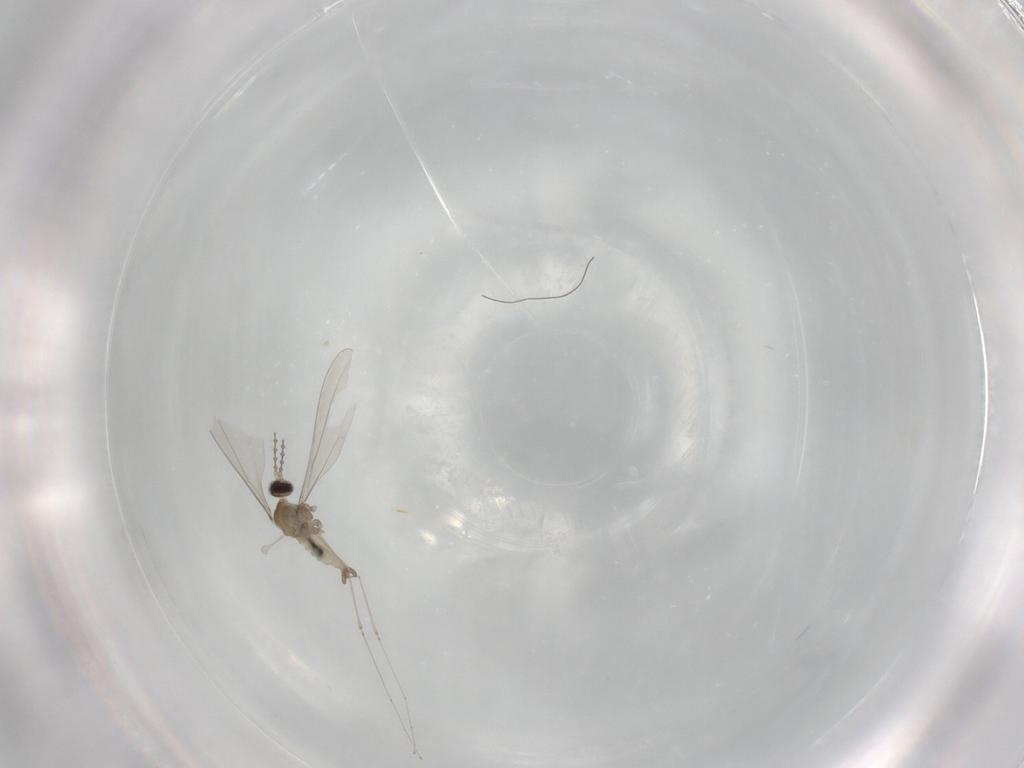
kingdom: Animalia
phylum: Arthropoda
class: Insecta
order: Diptera
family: Cecidomyiidae
